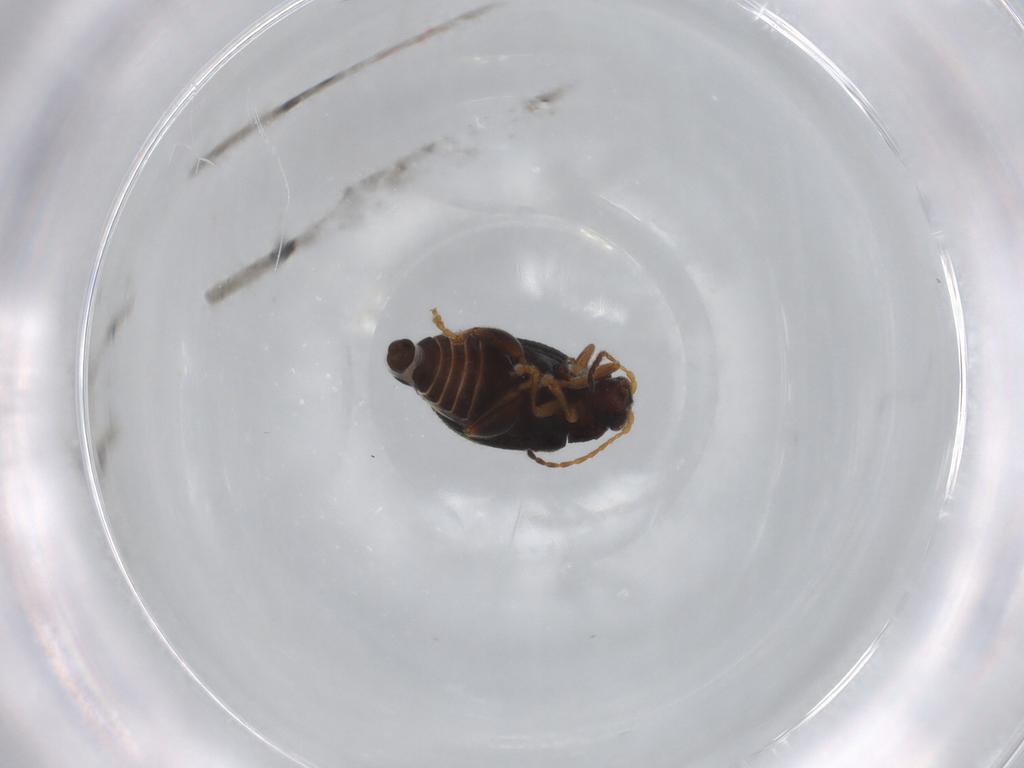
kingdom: Animalia
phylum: Arthropoda
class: Insecta
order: Coleoptera
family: Chrysomelidae
